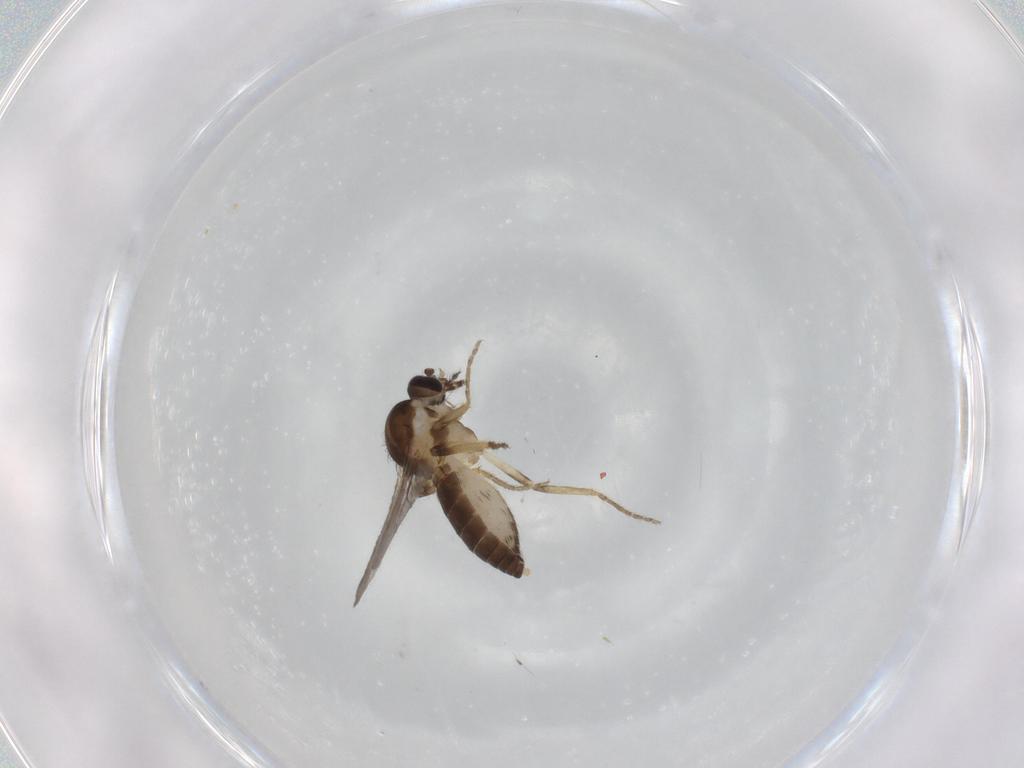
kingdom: Animalia
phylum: Arthropoda
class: Insecta
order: Diptera
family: Ceratopogonidae
